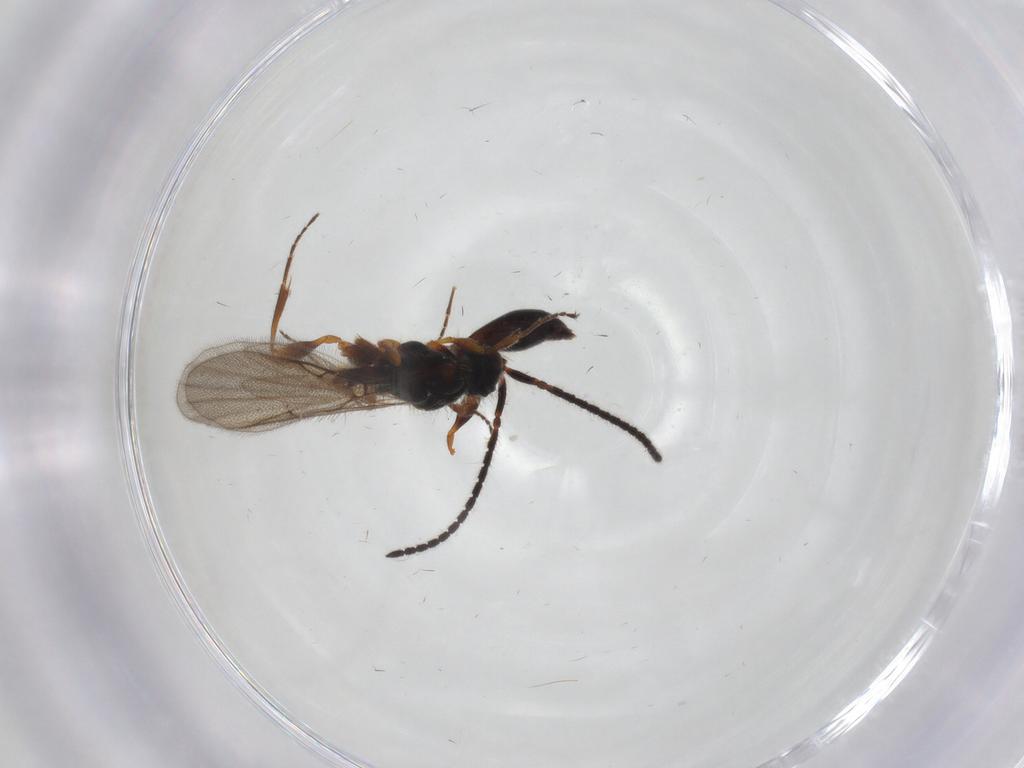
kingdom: Animalia
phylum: Arthropoda
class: Insecta
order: Hymenoptera
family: Diapriidae
